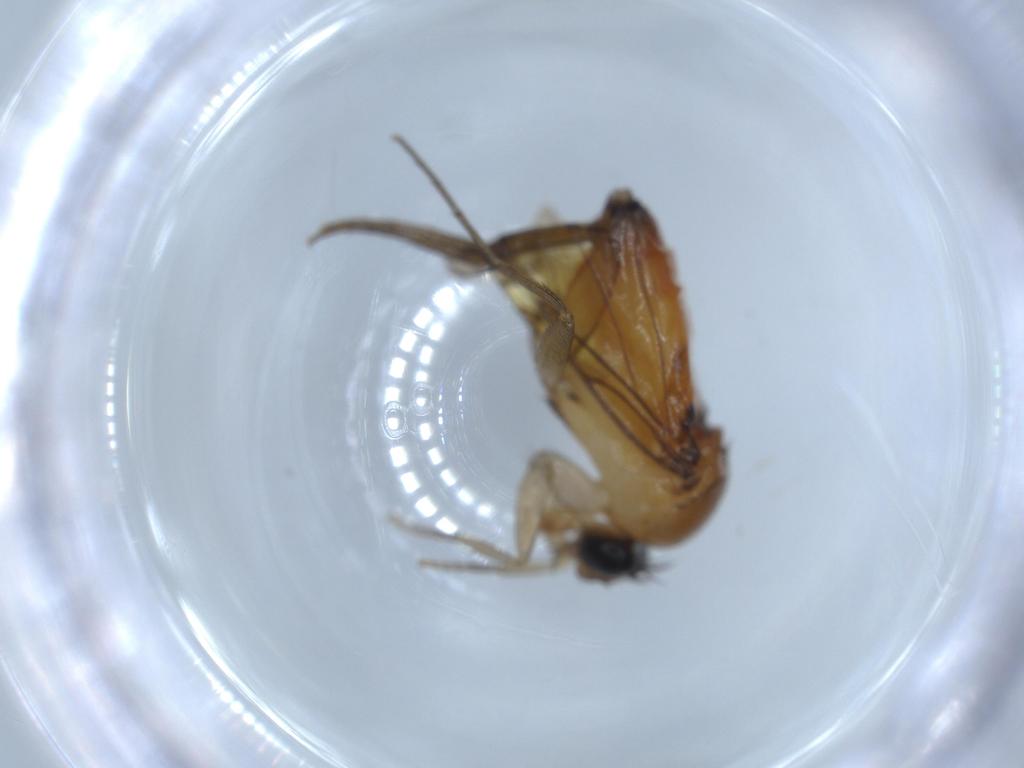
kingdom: Animalia
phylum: Arthropoda
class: Insecta
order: Diptera
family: Phoridae
